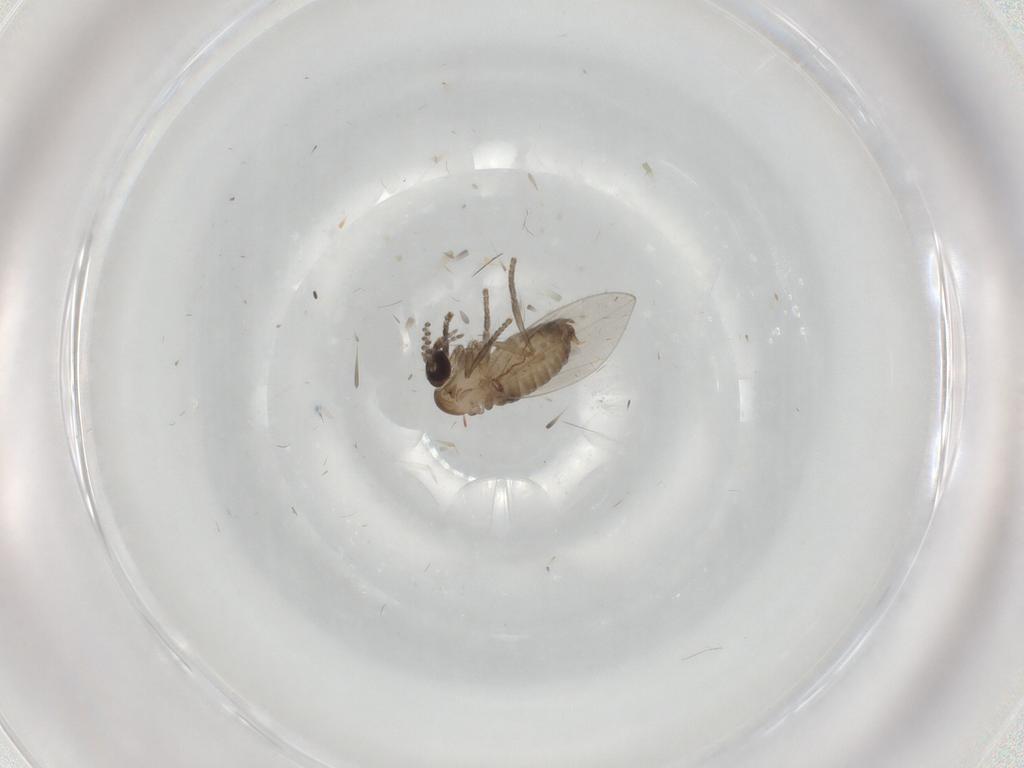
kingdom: Animalia
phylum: Arthropoda
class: Insecta
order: Diptera
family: Psychodidae
